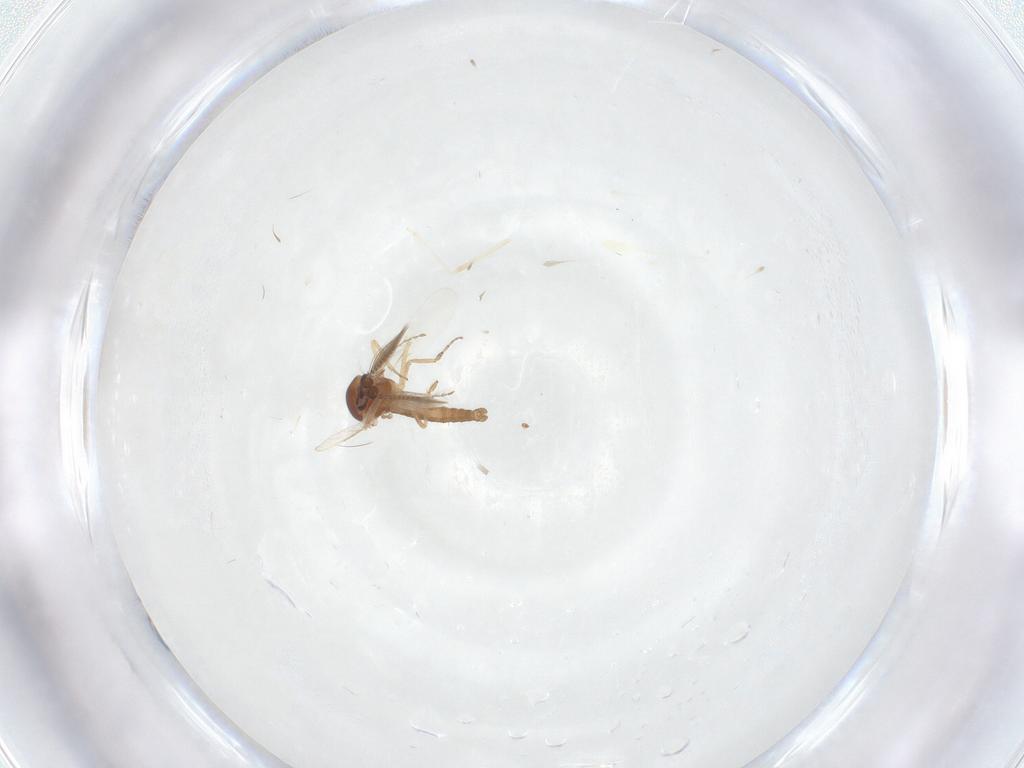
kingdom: Animalia
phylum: Arthropoda
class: Insecta
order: Diptera
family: Cecidomyiidae
